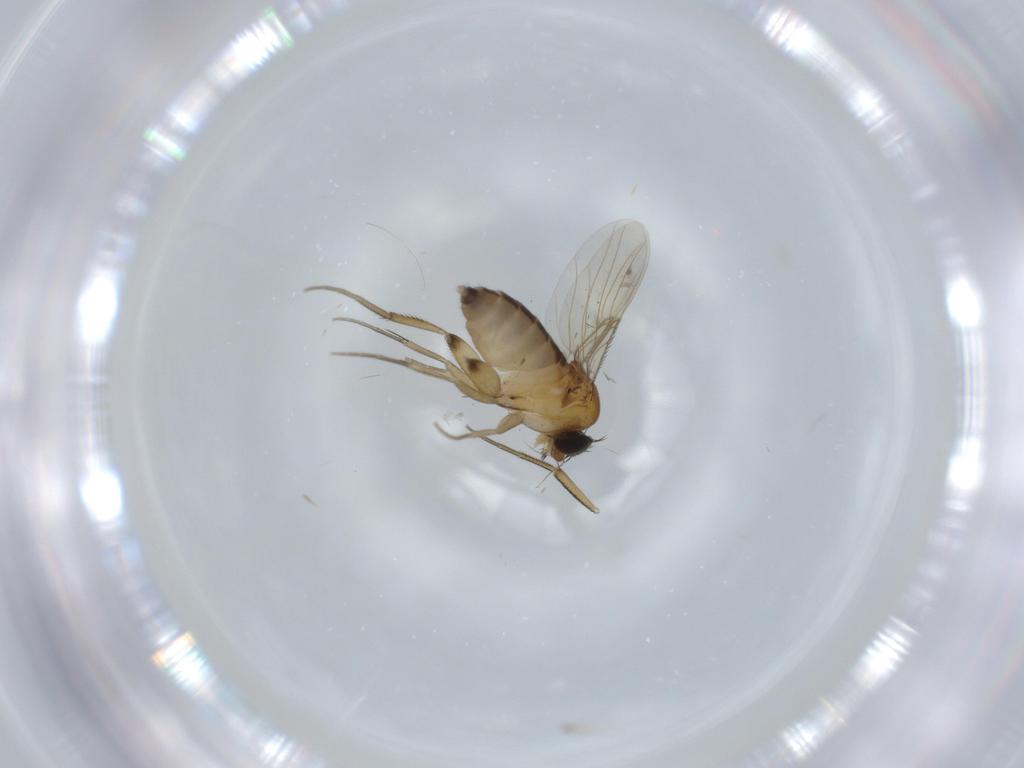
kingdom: Animalia
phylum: Arthropoda
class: Insecta
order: Diptera
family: Phoridae
